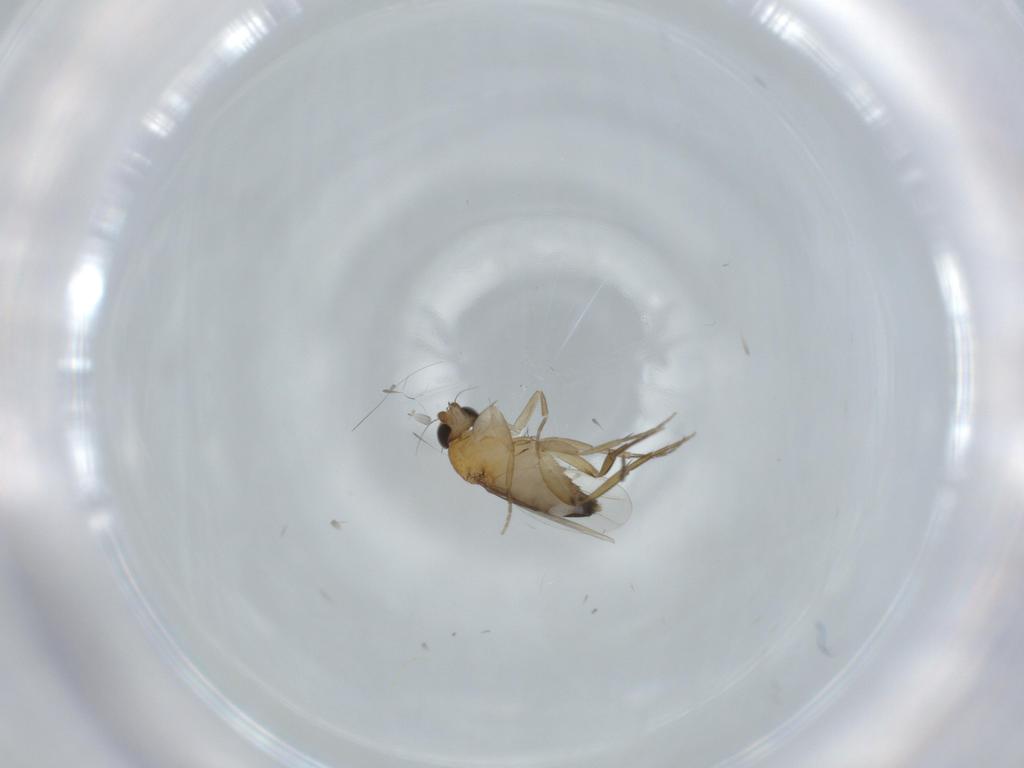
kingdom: Animalia
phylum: Arthropoda
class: Insecta
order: Diptera
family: Phoridae
